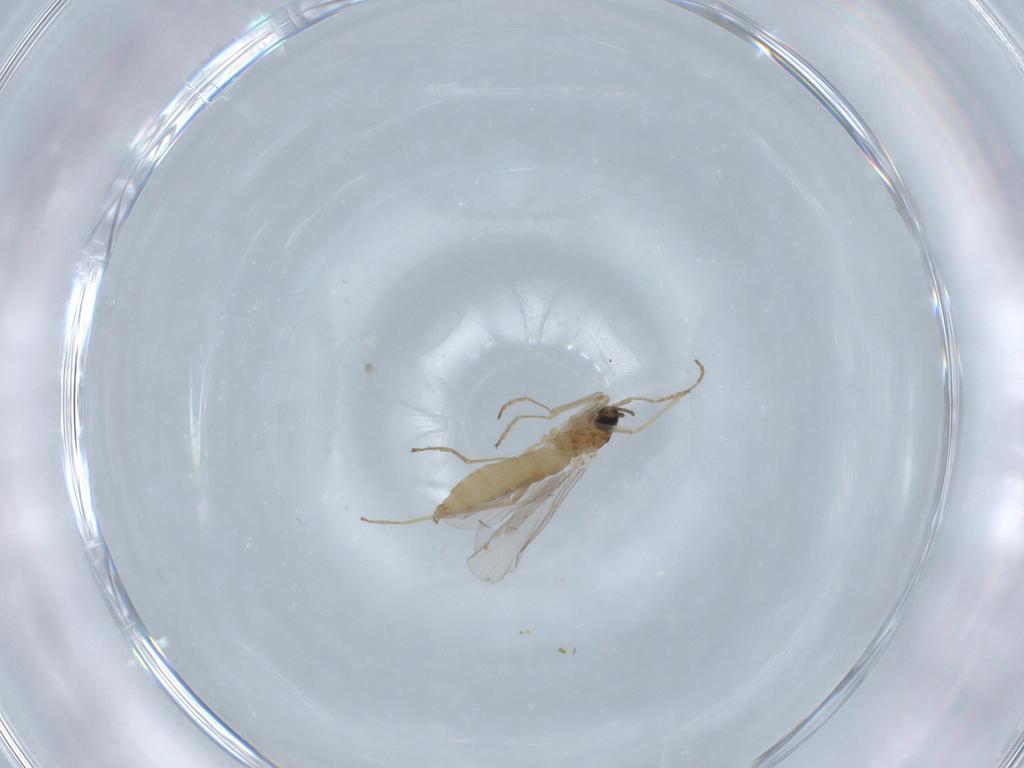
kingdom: Animalia
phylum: Arthropoda
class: Insecta
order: Diptera
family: Cecidomyiidae
